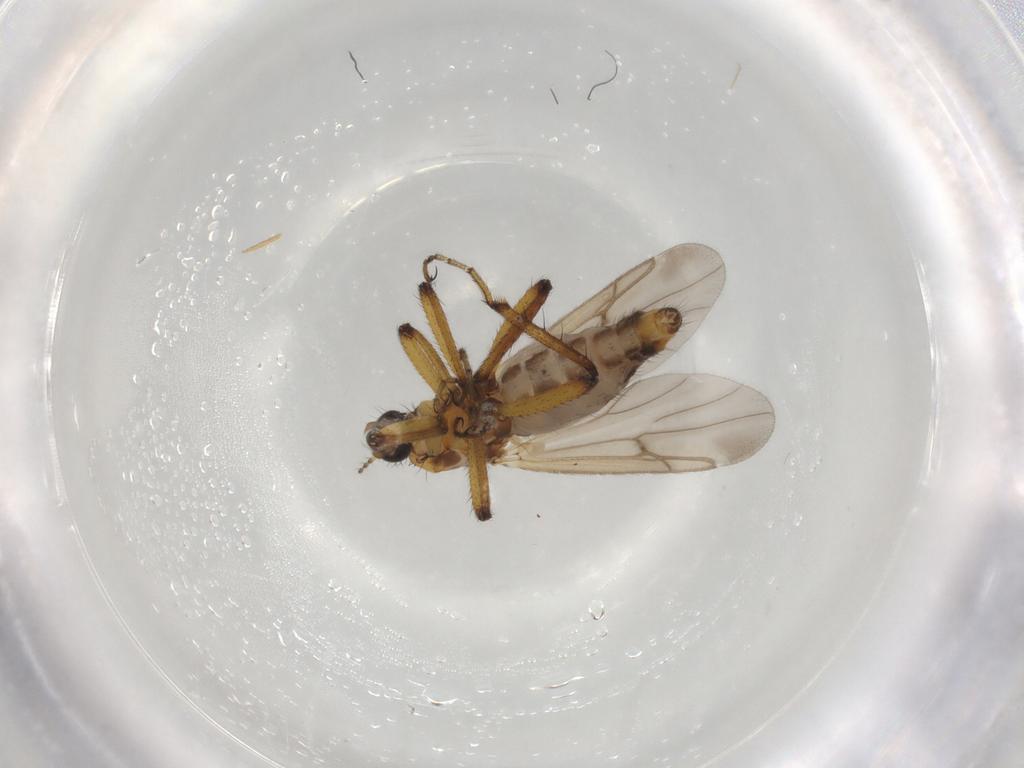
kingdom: Animalia
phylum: Arthropoda
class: Insecta
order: Diptera
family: Ceratopogonidae
